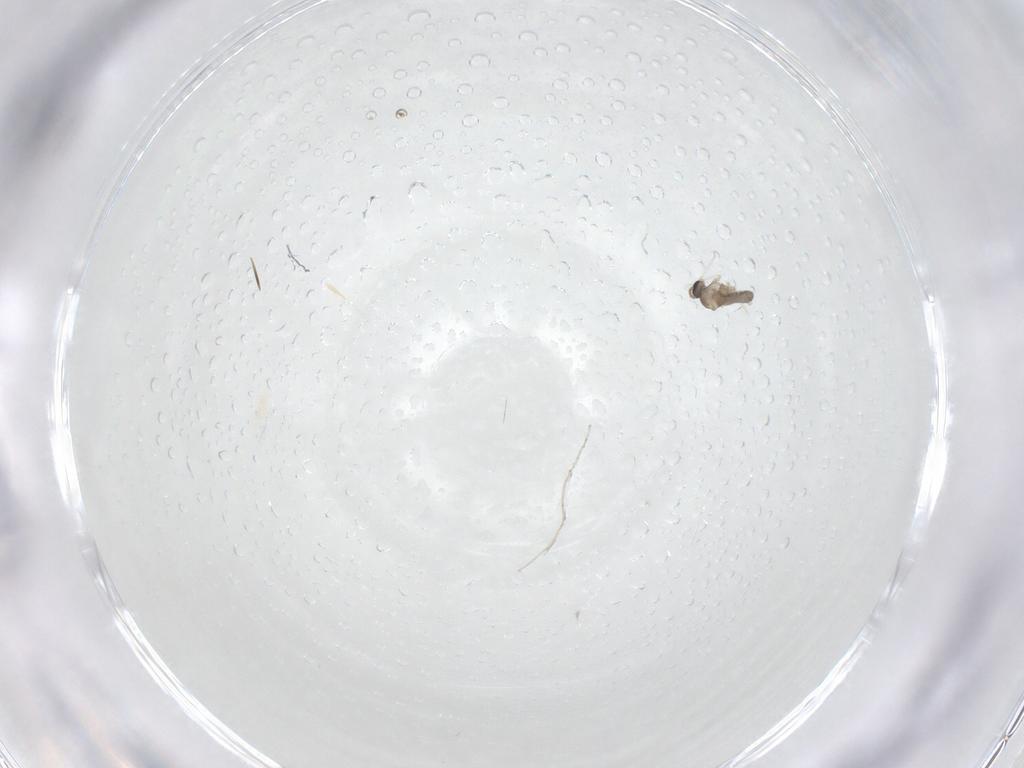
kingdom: Animalia
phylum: Arthropoda
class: Insecta
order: Diptera
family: Cecidomyiidae
